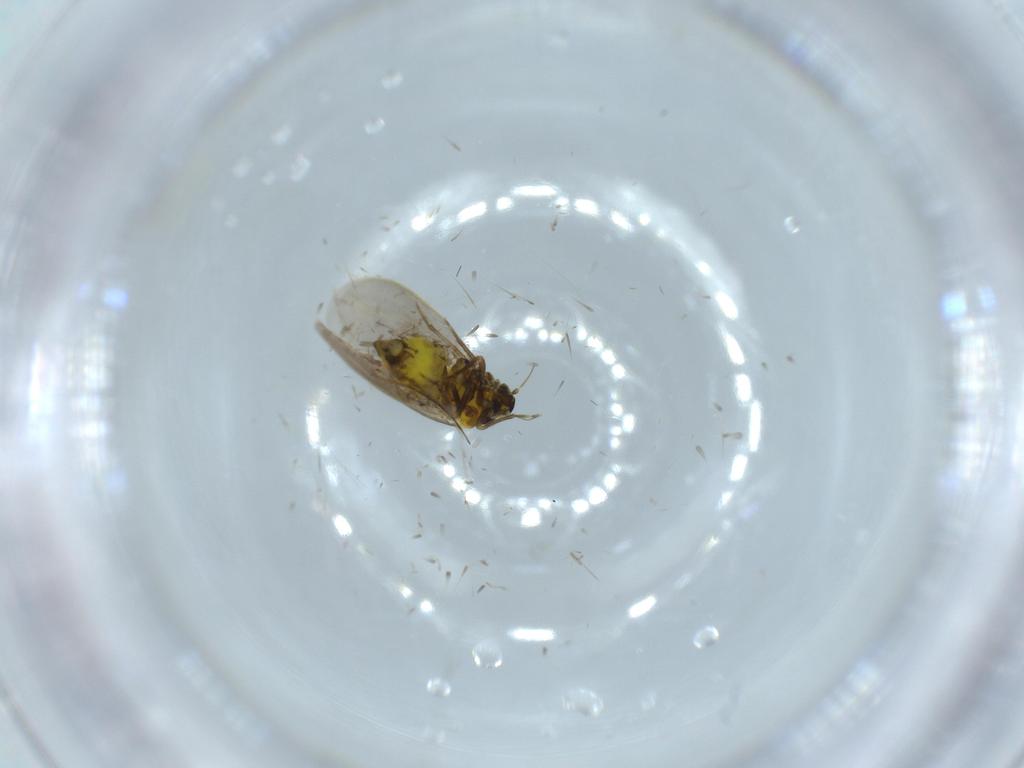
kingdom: Animalia
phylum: Arthropoda
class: Insecta
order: Hemiptera
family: Aleyrodidae
